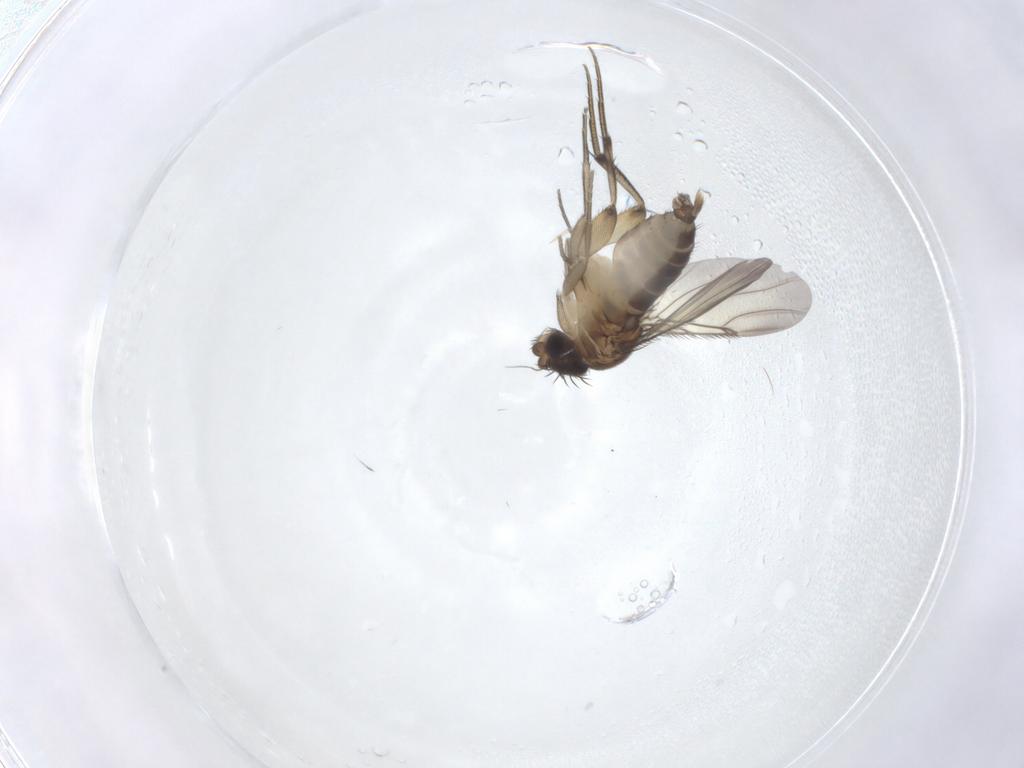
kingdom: Animalia
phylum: Arthropoda
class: Insecta
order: Diptera
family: Phoridae
